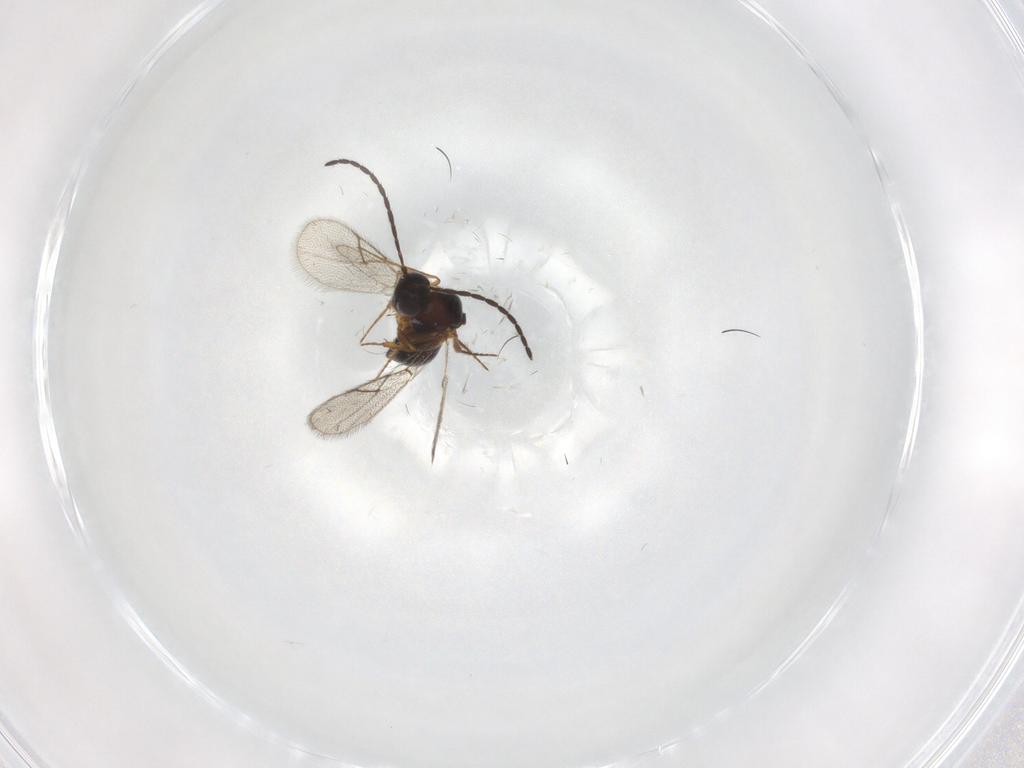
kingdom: Animalia
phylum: Arthropoda
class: Insecta
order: Hymenoptera
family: Figitidae
